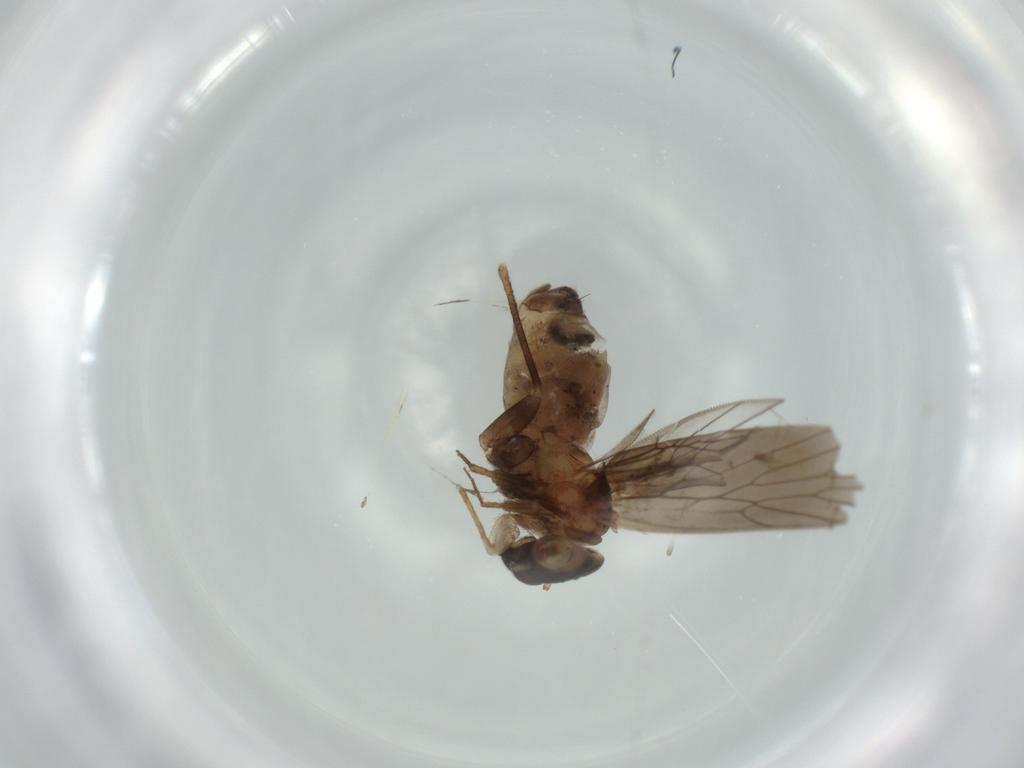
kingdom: Animalia
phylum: Arthropoda
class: Insecta
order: Psocodea
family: Lepidopsocidae
